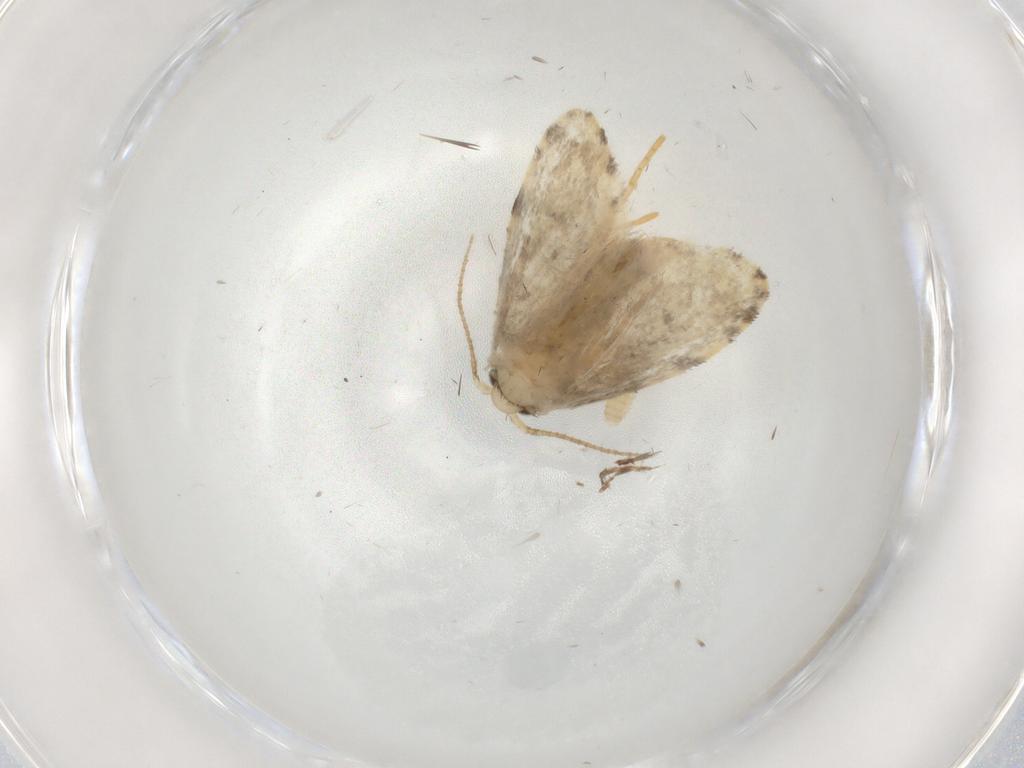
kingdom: Animalia
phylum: Arthropoda
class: Insecta
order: Lepidoptera
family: Psychidae
